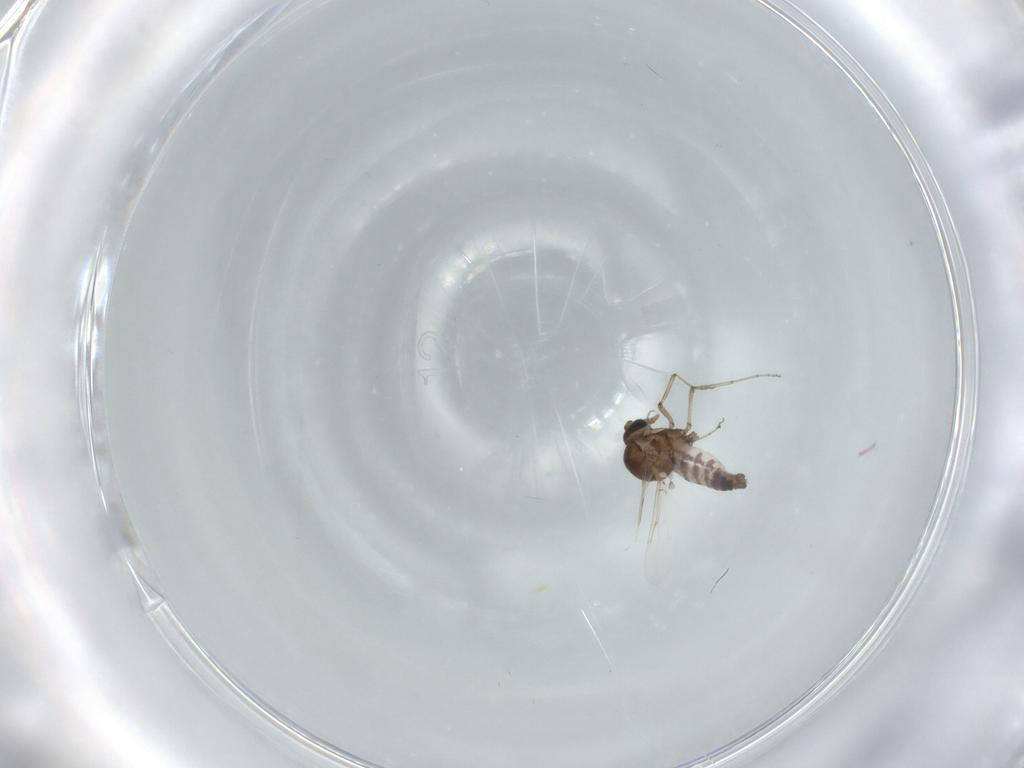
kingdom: Animalia
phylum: Arthropoda
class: Insecta
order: Diptera
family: Ceratopogonidae
